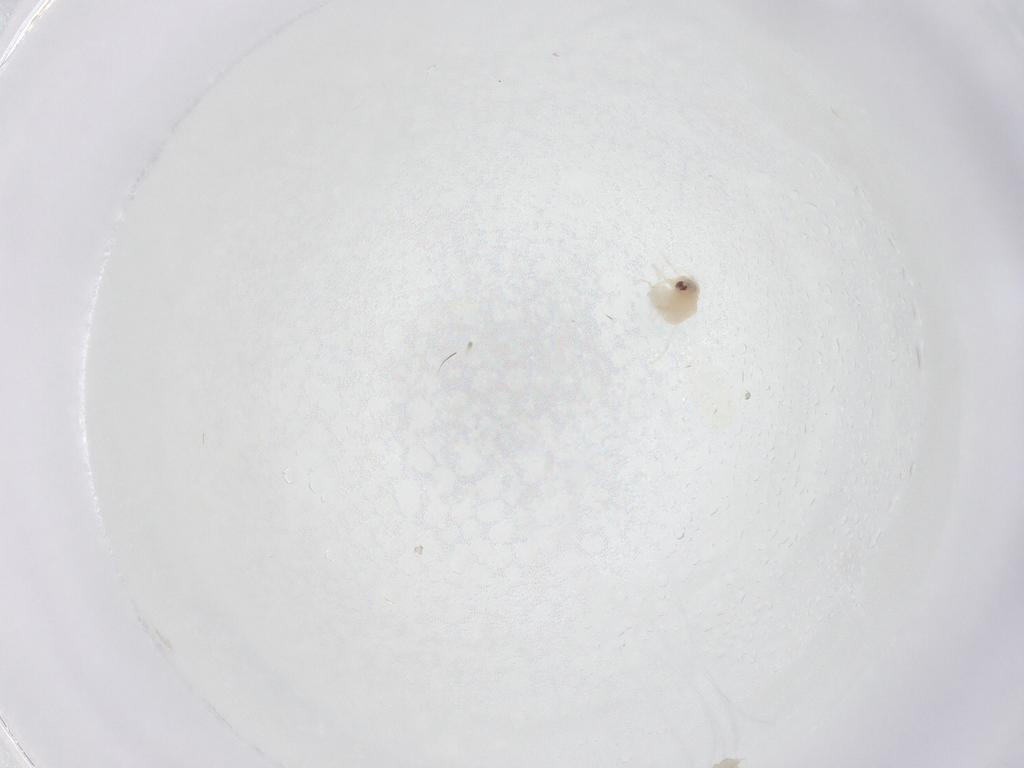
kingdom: Animalia
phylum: Arthropoda
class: Insecta
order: Hemiptera
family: Aleyrodidae
